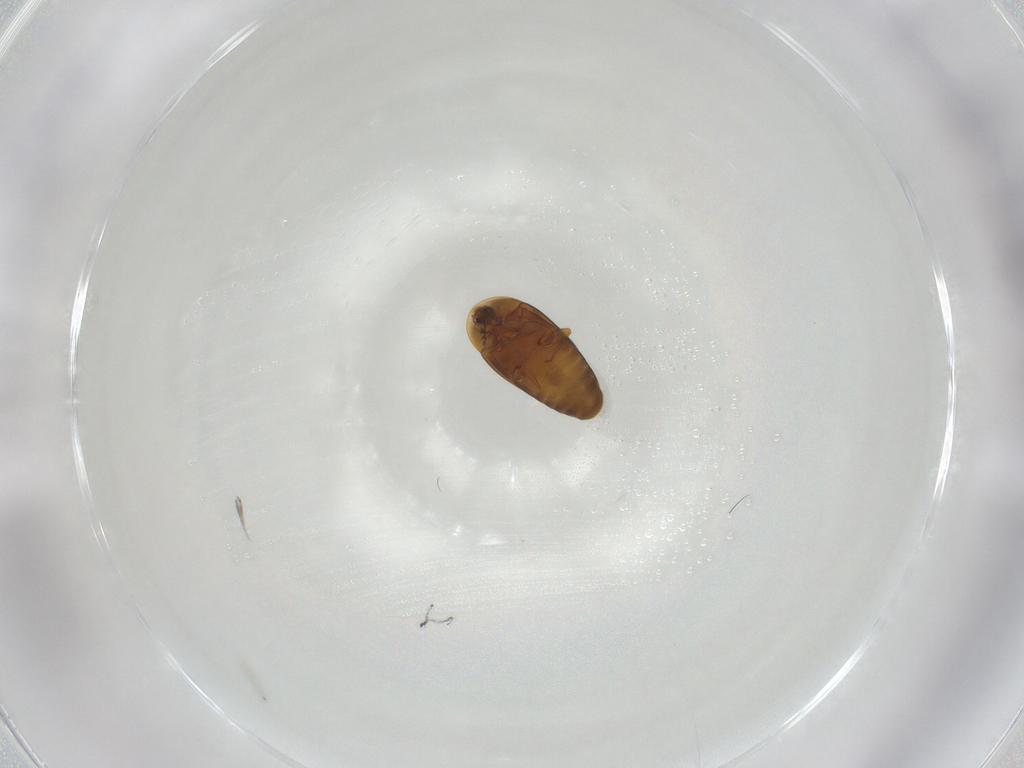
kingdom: Animalia
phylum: Arthropoda
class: Insecta
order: Coleoptera
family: Corylophidae
